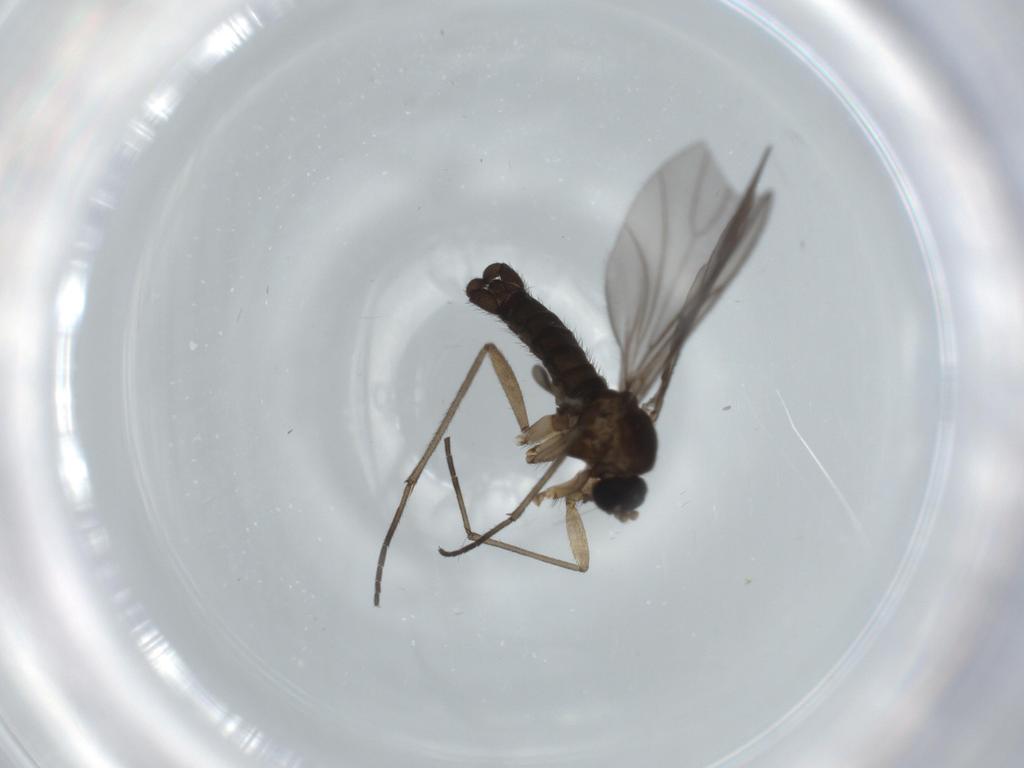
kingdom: Animalia
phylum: Arthropoda
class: Insecta
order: Diptera
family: Sciaridae
